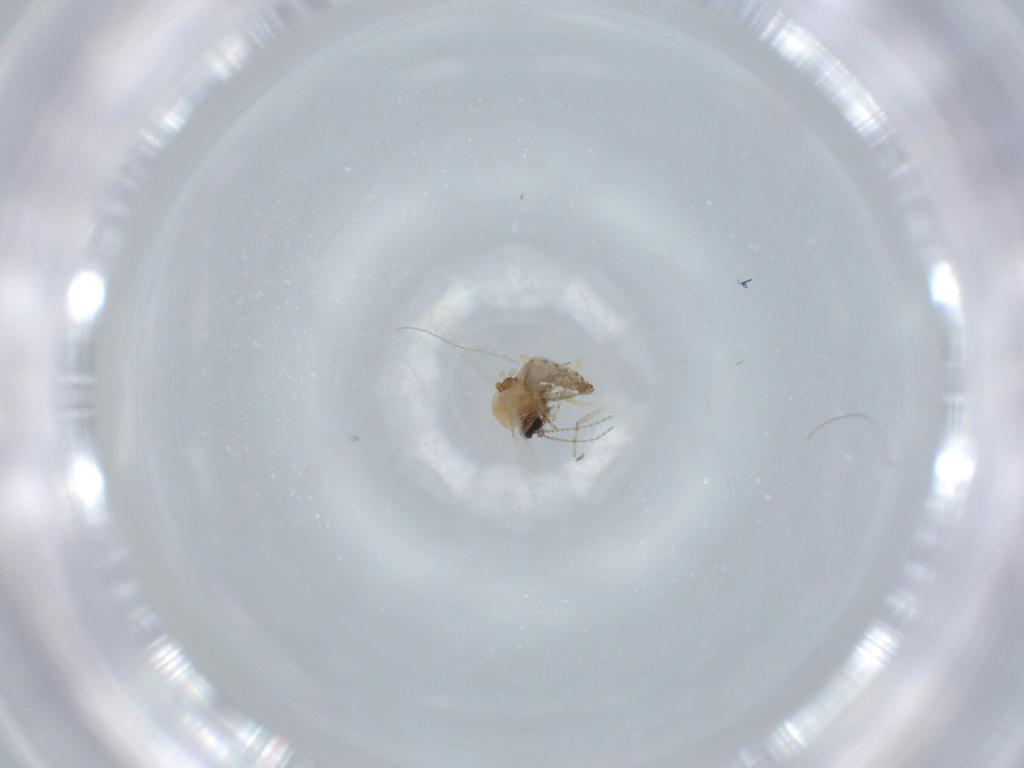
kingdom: Animalia
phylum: Arthropoda
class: Insecta
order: Diptera
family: Ceratopogonidae
